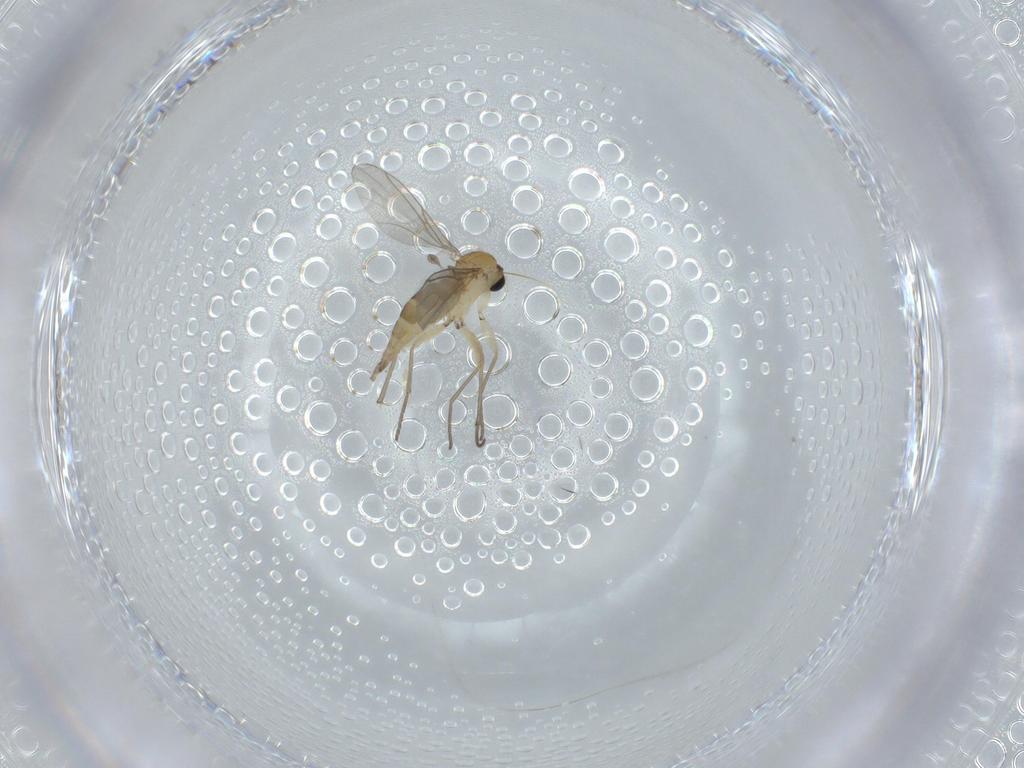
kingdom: Animalia
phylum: Arthropoda
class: Insecta
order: Diptera
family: Sciaridae
